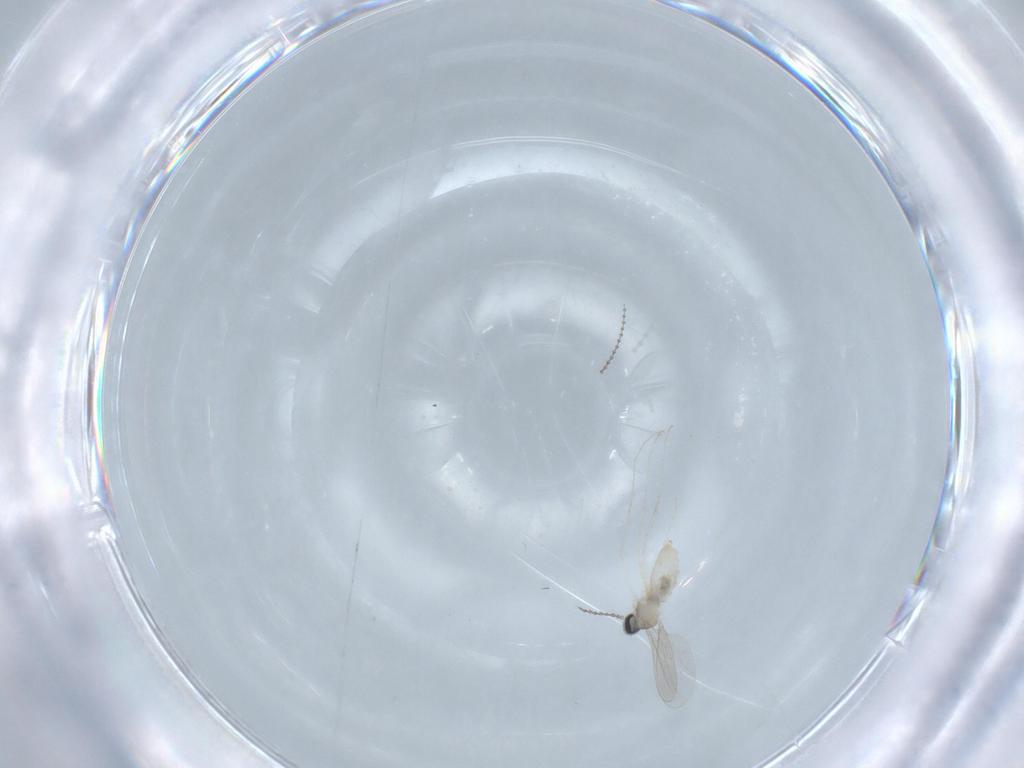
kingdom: Animalia
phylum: Arthropoda
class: Insecta
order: Diptera
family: Cecidomyiidae
